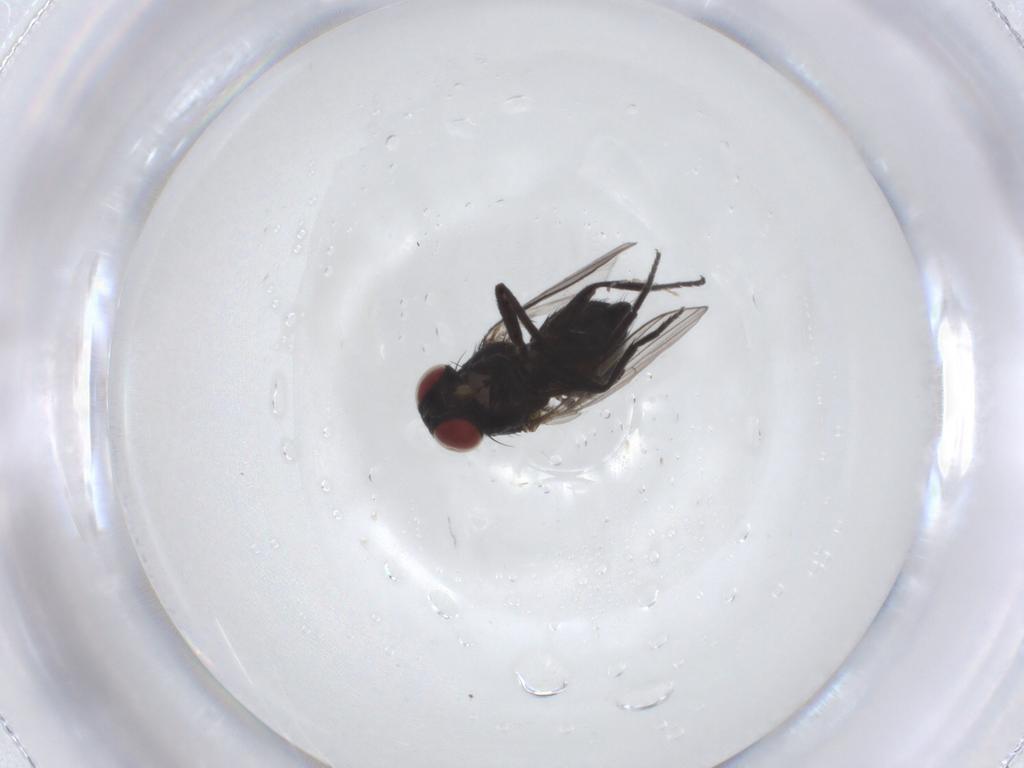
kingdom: Animalia
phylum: Arthropoda
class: Insecta
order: Diptera
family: Agromyzidae
